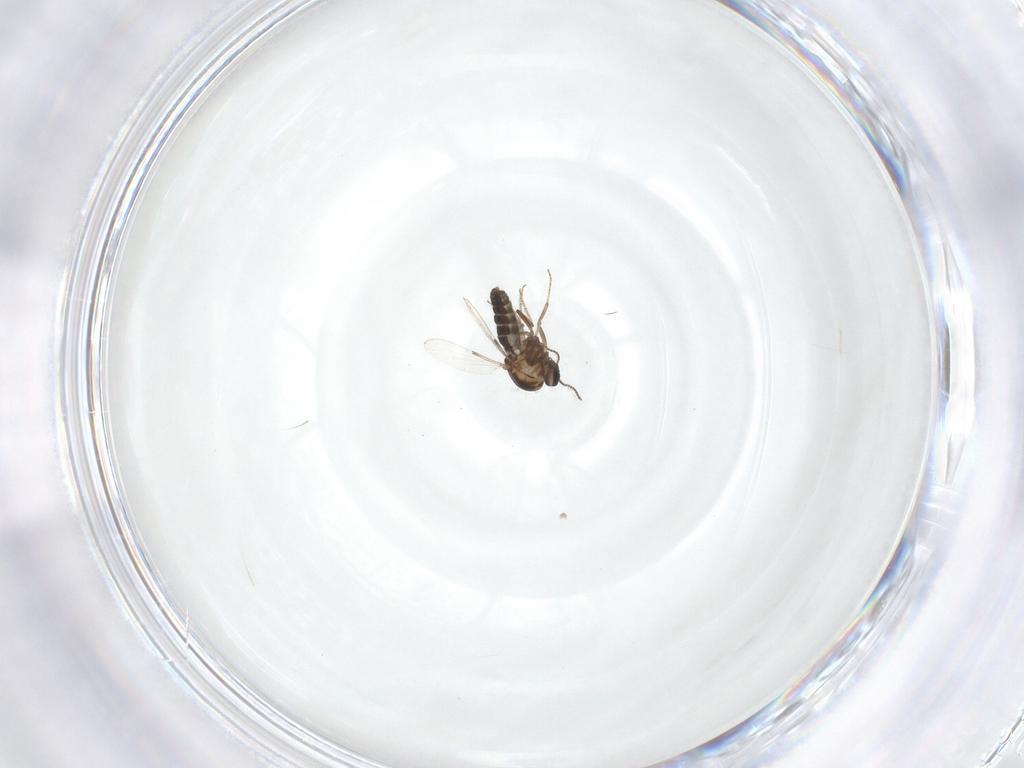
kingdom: Animalia
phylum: Arthropoda
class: Insecta
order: Diptera
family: Ceratopogonidae
